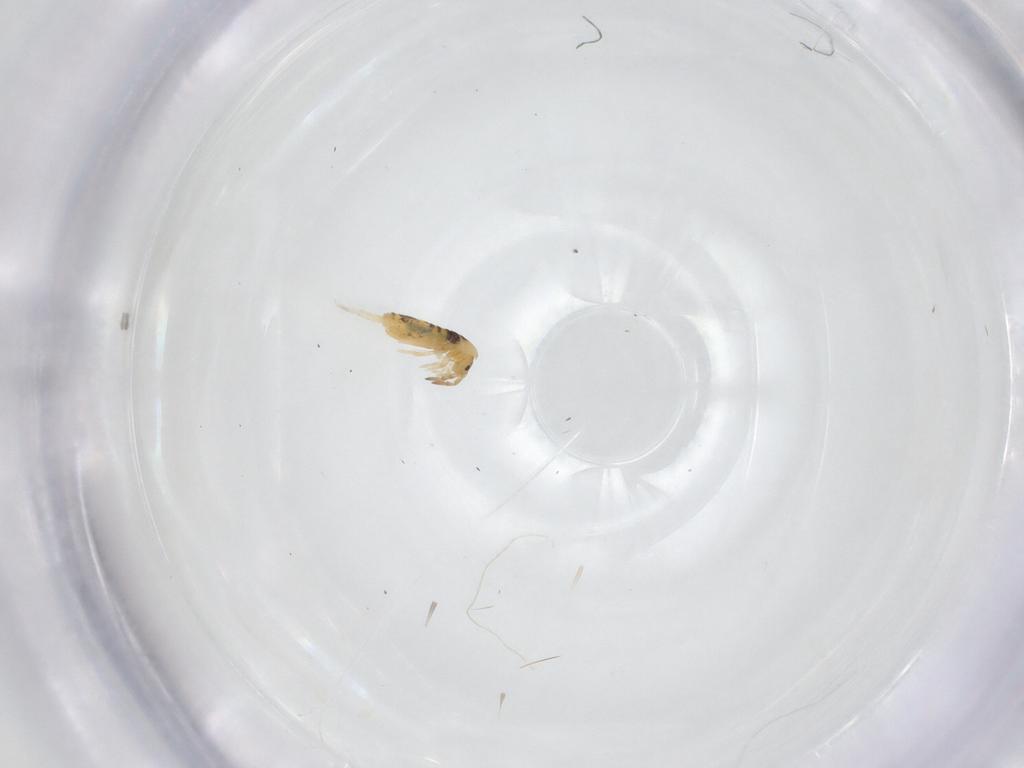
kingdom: Animalia
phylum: Arthropoda
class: Collembola
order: Entomobryomorpha
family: Entomobryidae
